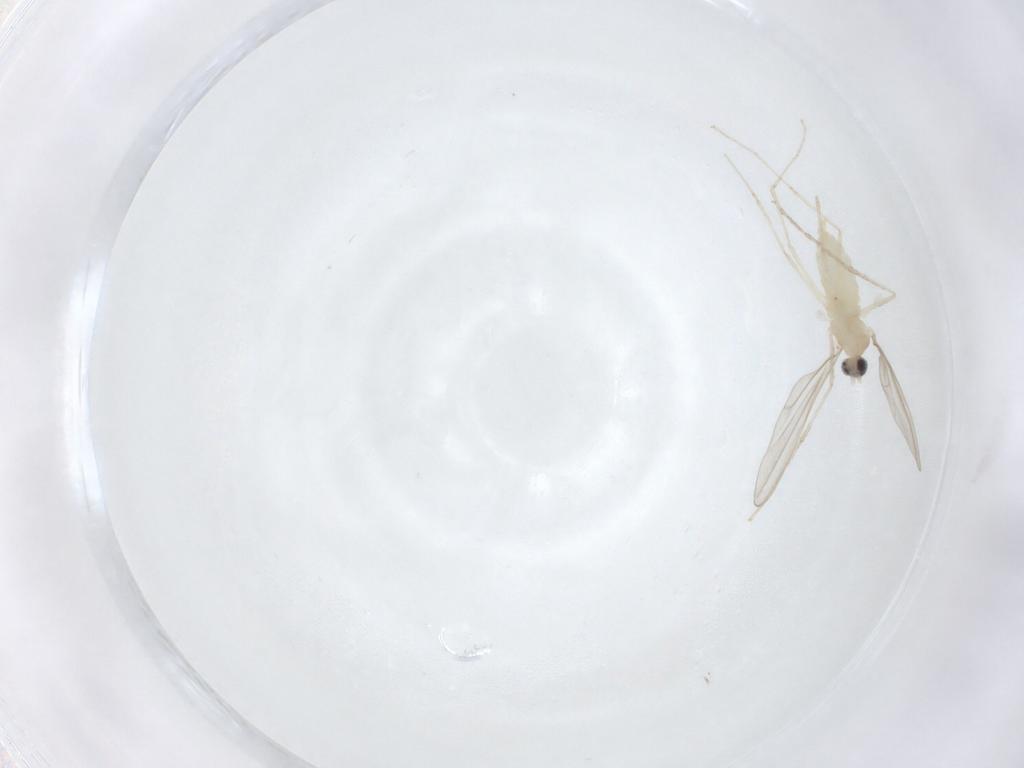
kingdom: Animalia
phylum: Arthropoda
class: Insecta
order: Diptera
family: Cecidomyiidae
